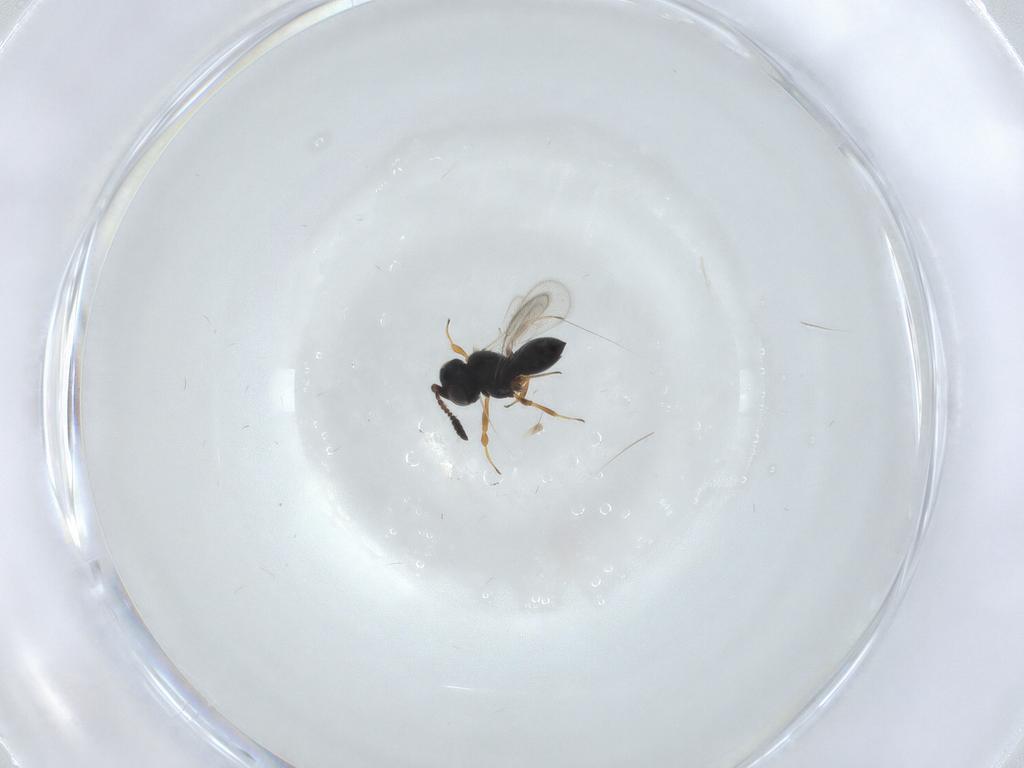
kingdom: Animalia
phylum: Arthropoda
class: Insecta
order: Hymenoptera
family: Scelionidae
